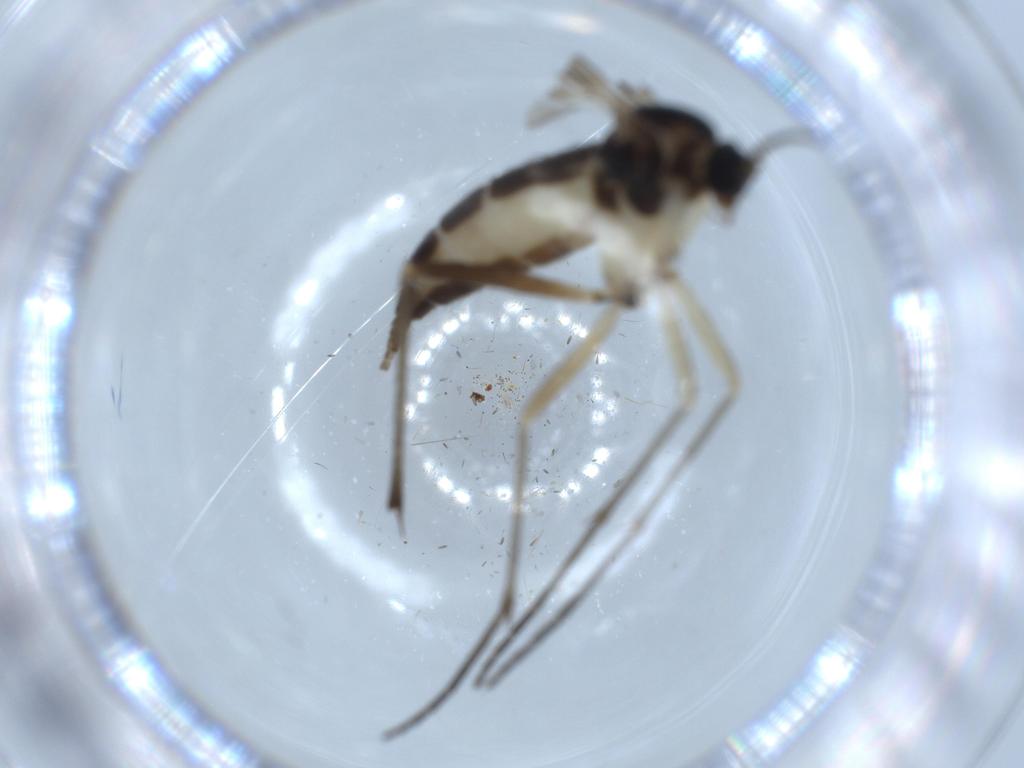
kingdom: Animalia
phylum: Arthropoda
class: Insecta
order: Diptera
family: Sciaridae
